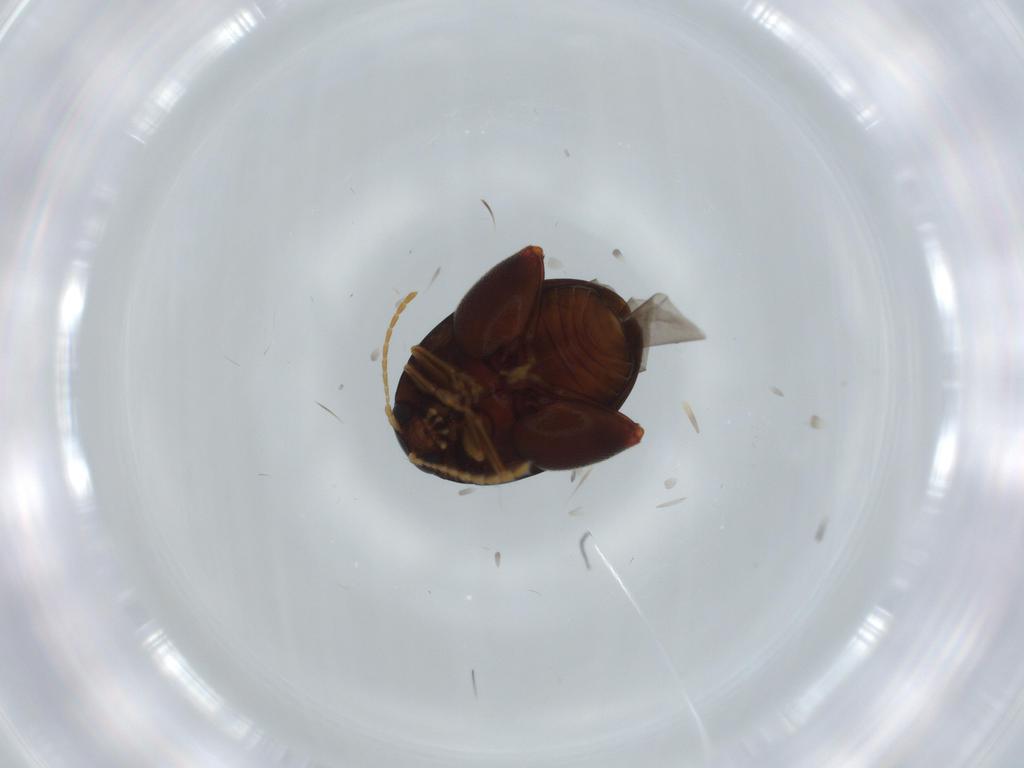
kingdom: Animalia
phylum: Arthropoda
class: Insecta
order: Coleoptera
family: Chrysomelidae
